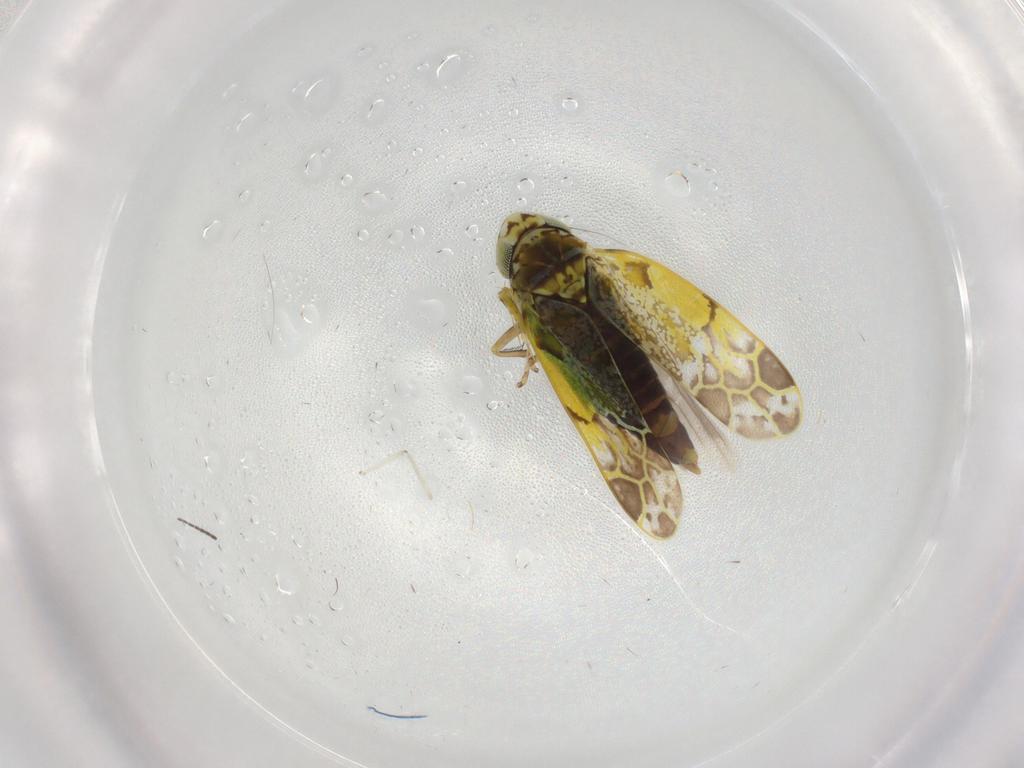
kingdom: Animalia
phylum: Arthropoda
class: Insecta
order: Hemiptera
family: Cicadellidae
